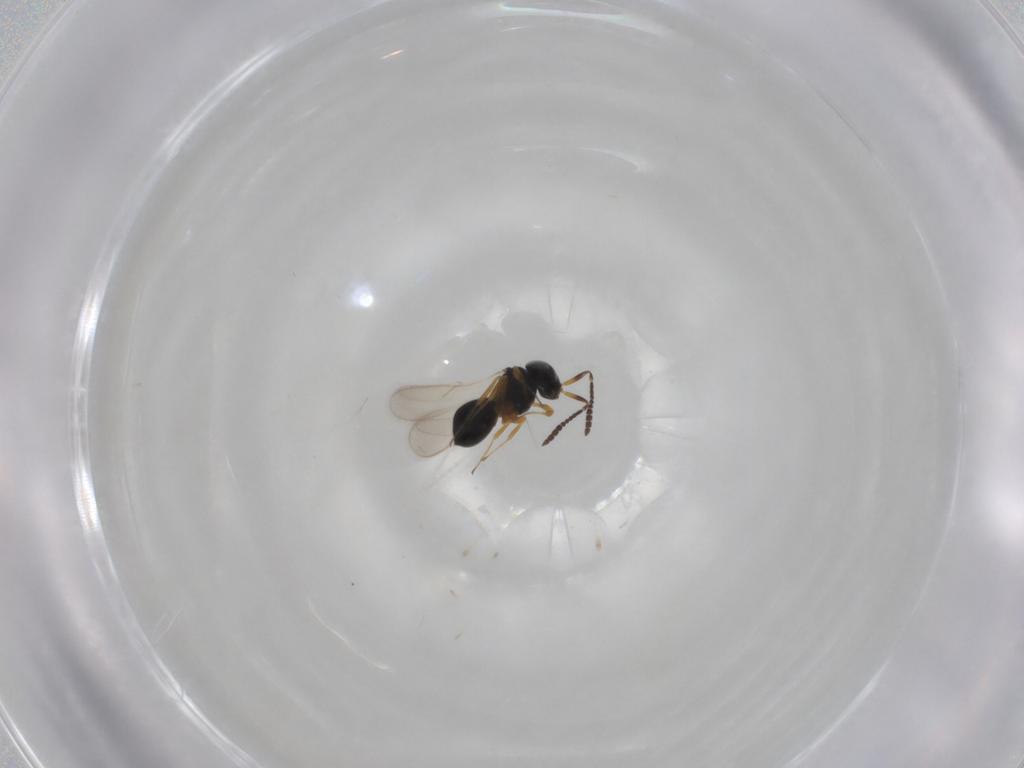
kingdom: Animalia
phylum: Arthropoda
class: Insecta
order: Hymenoptera
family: Scelionidae
